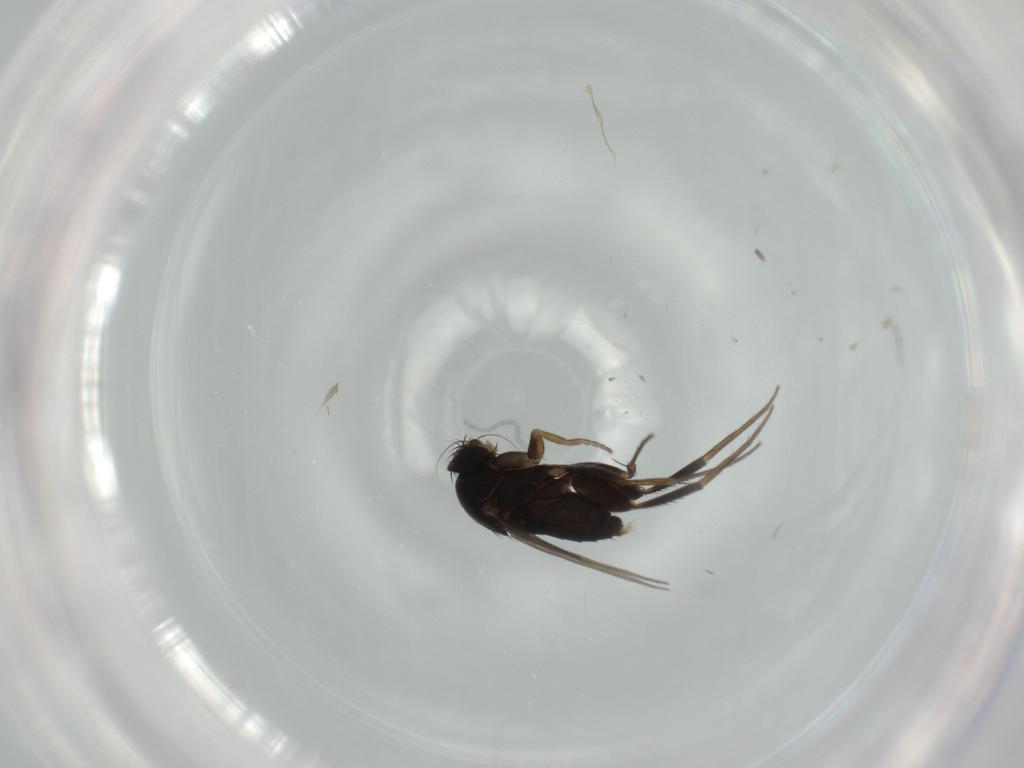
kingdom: Animalia
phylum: Arthropoda
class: Insecta
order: Diptera
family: Phoridae
